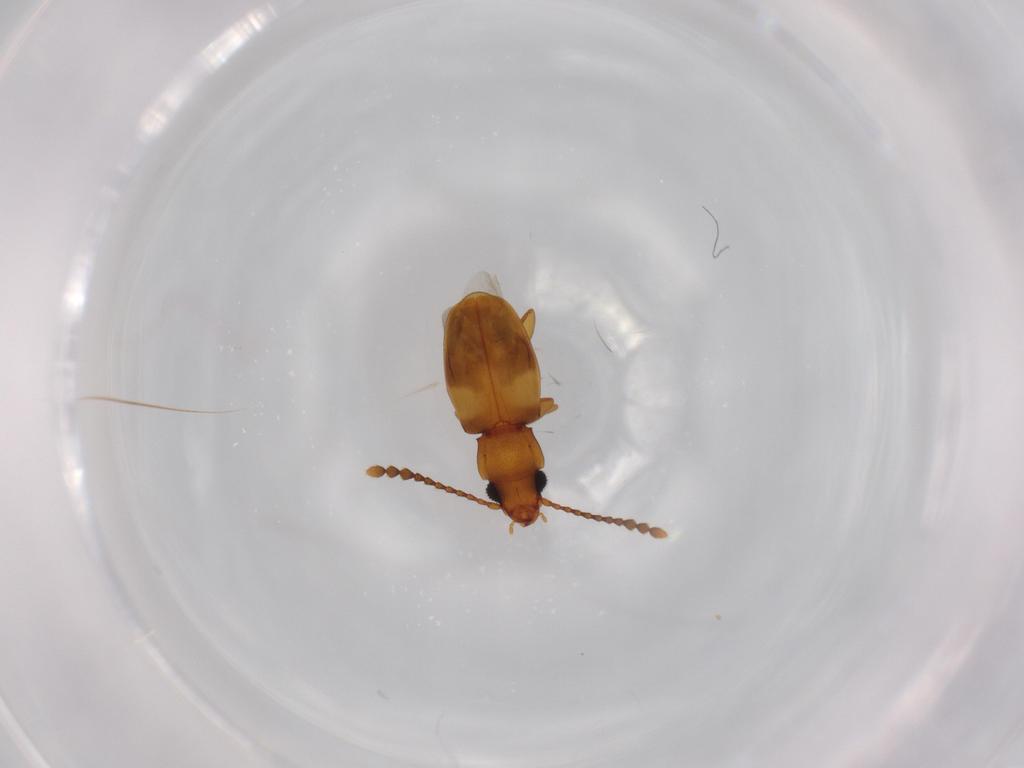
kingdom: Animalia
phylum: Arthropoda
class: Insecta
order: Coleoptera
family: Laemophloeidae
